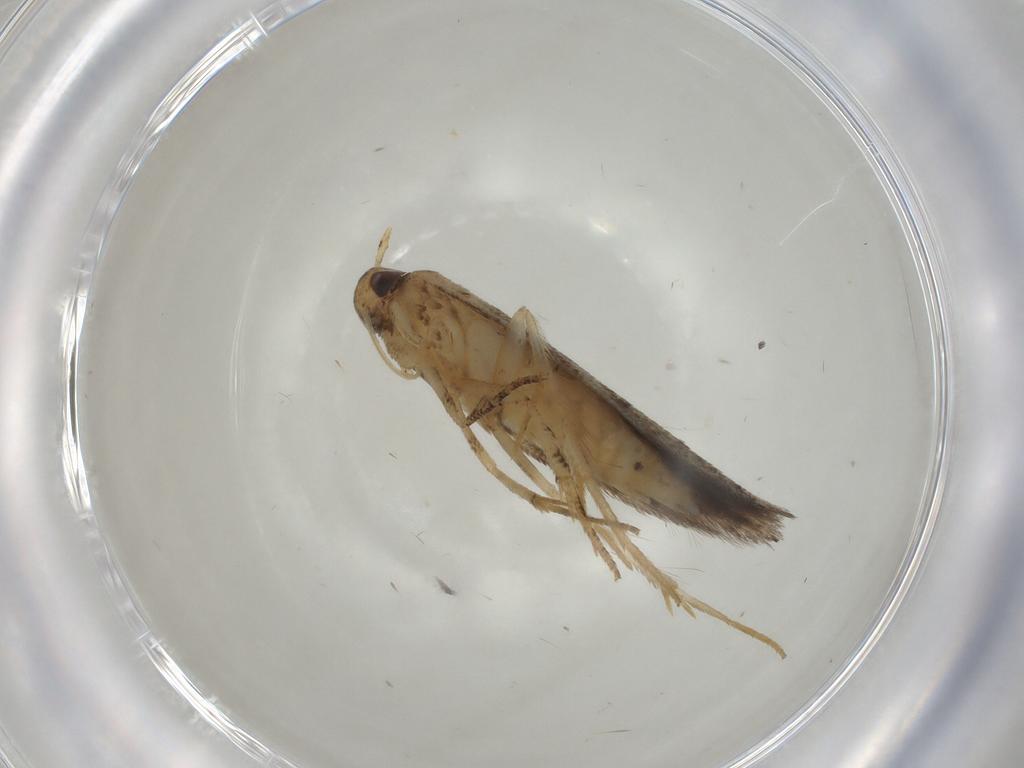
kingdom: Animalia
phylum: Arthropoda
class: Insecta
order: Lepidoptera
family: Elachistidae
